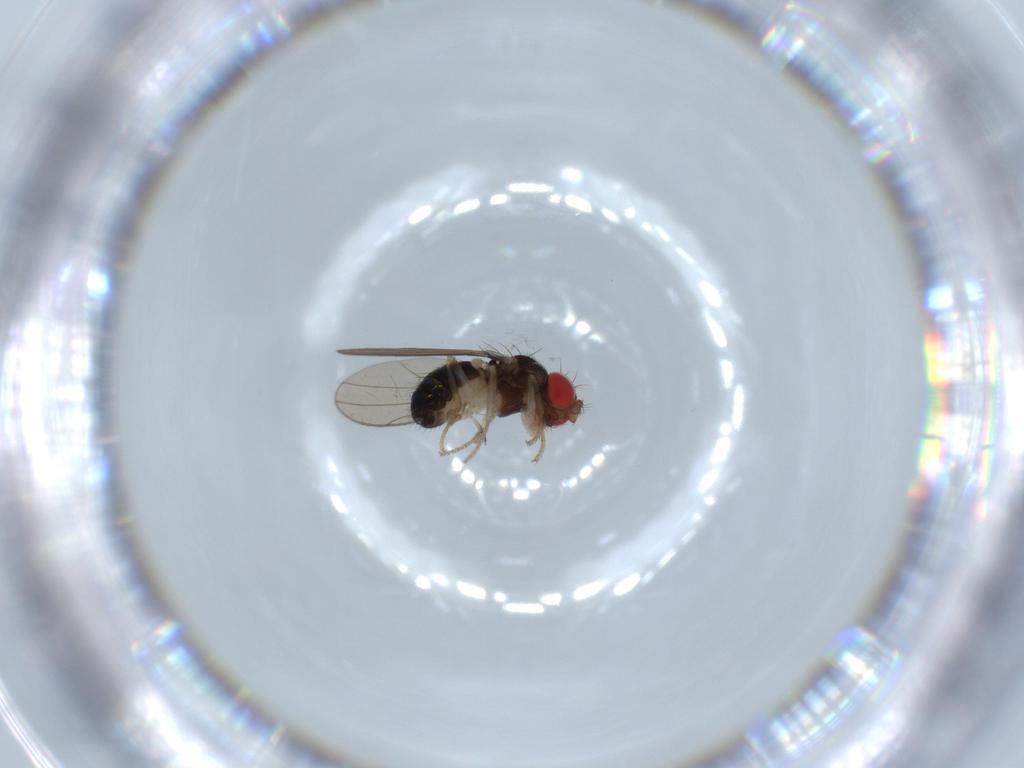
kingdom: Animalia
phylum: Arthropoda
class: Insecta
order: Diptera
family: Drosophilidae
